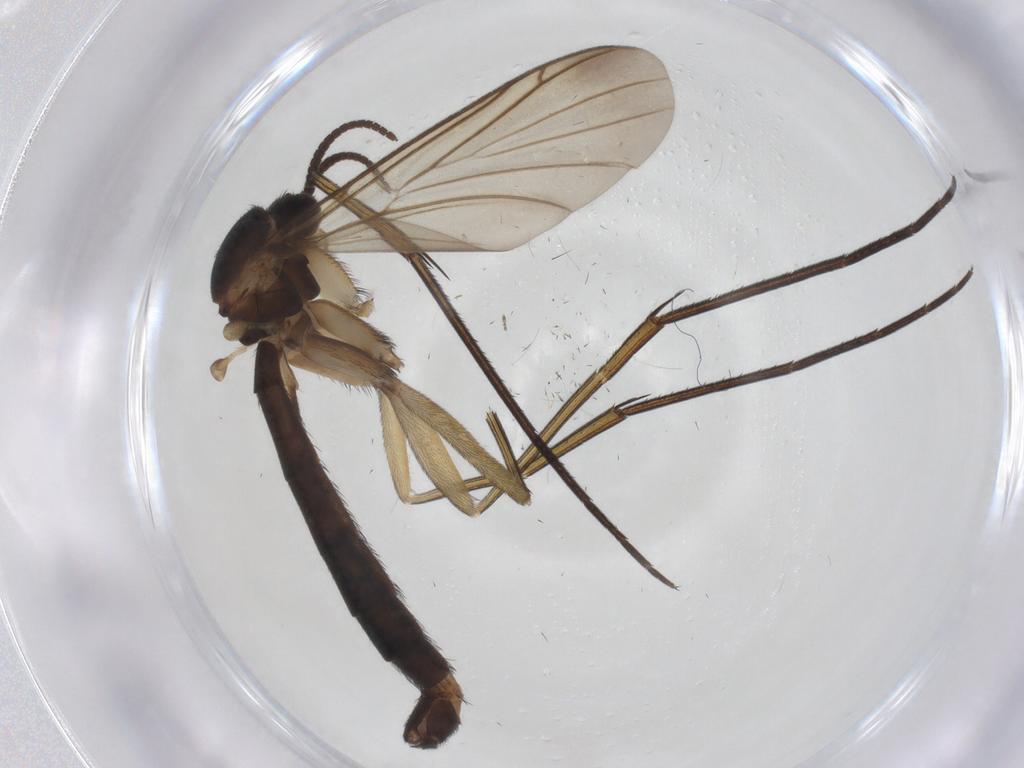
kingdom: Animalia
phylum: Arthropoda
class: Insecta
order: Diptera
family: Keroplatidae
